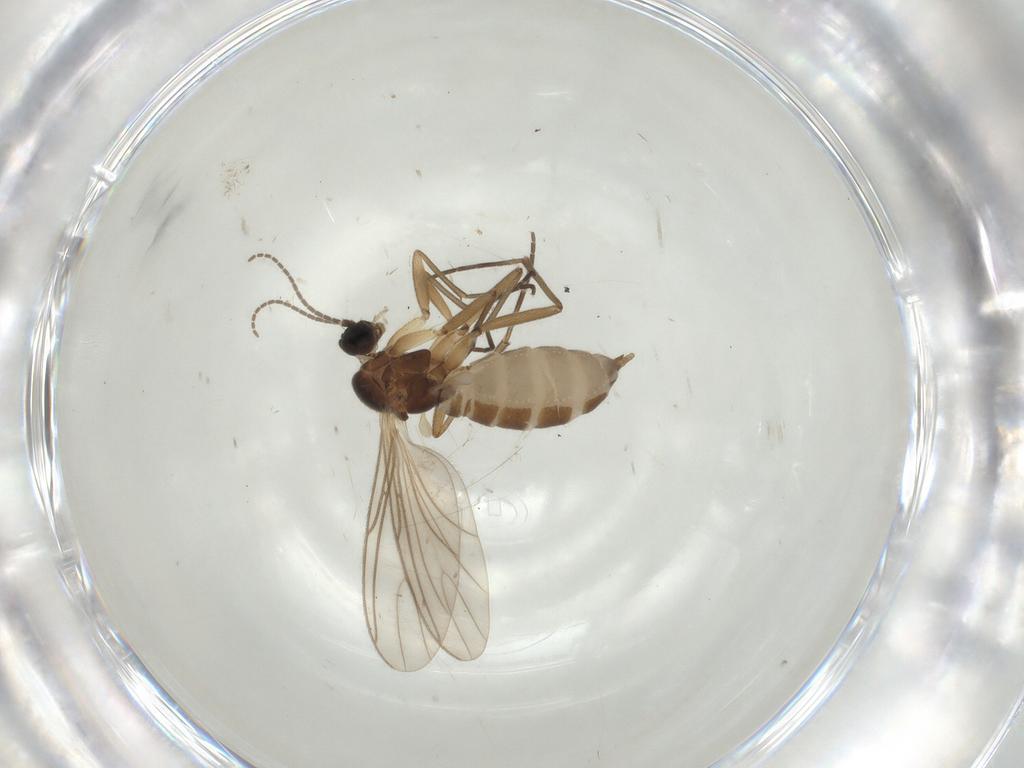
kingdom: Animalia
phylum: Arthropoda
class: Insecta
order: Diptera
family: Sciaridae
